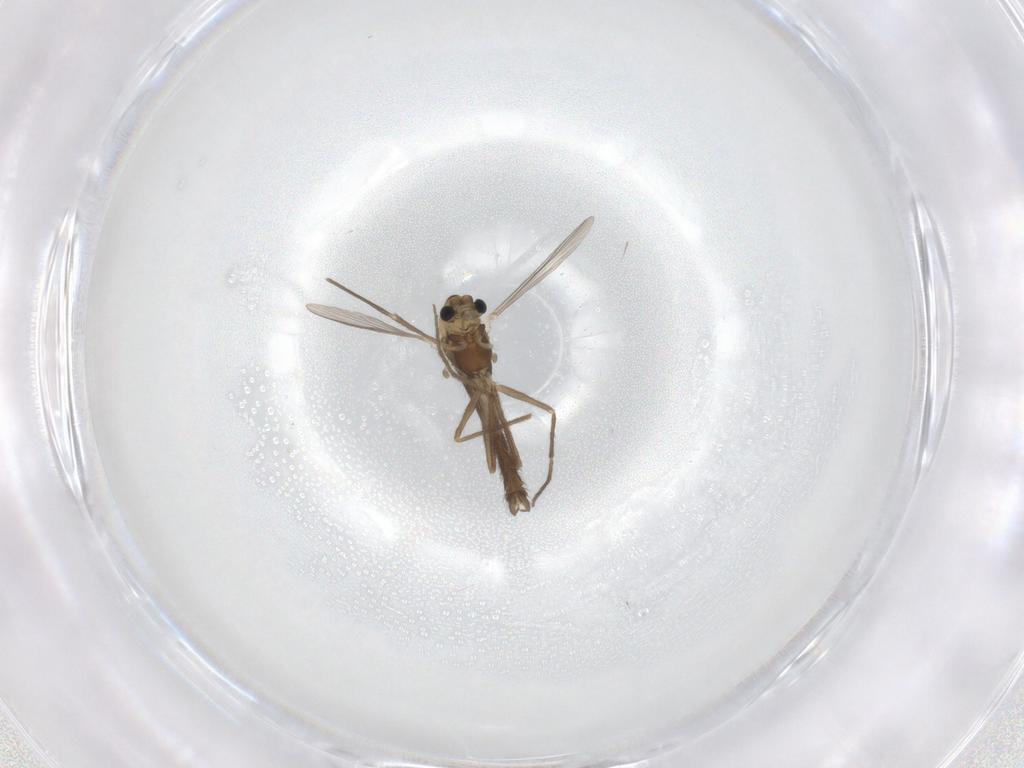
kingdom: Animalia
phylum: Arthropoda
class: Insecta
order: Diptera
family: Chironomidae
